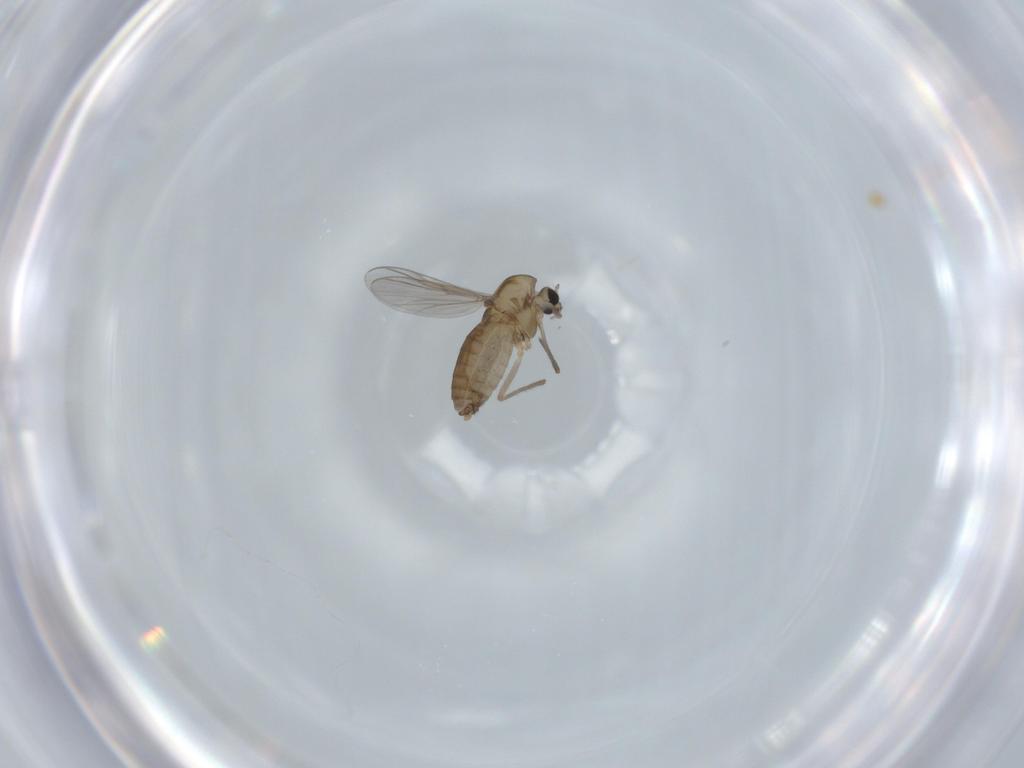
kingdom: Animalia
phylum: Arthropoda
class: Insecta
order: Diptera
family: Chironomidae
